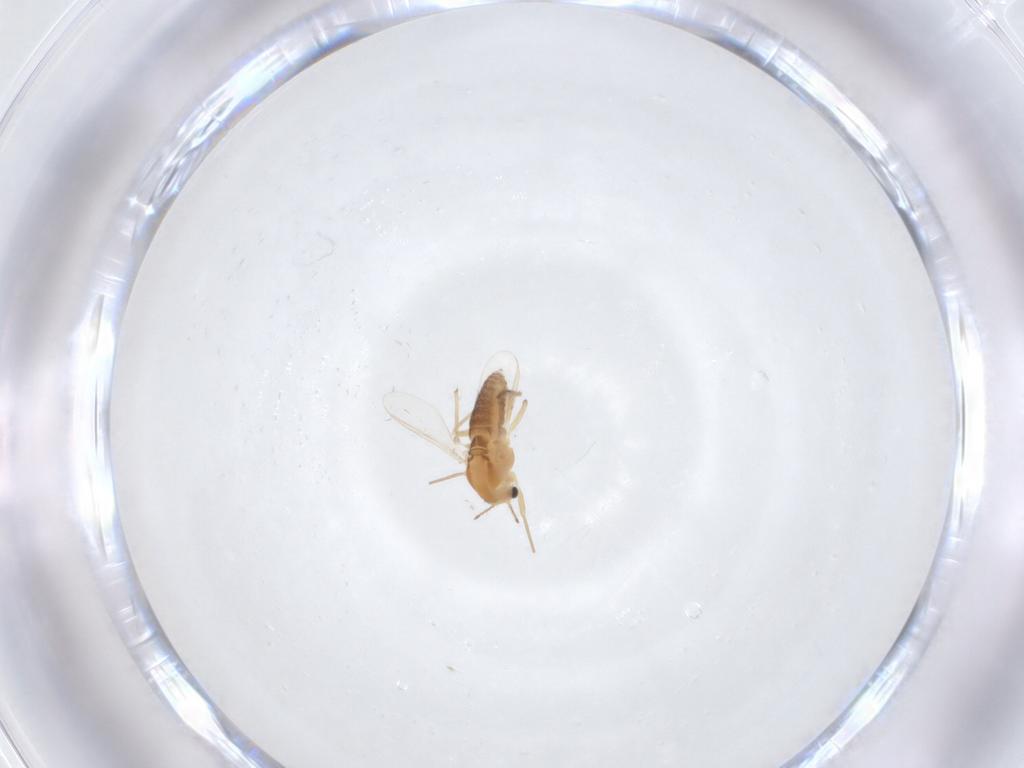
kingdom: Animalia
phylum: Arthropoda
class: Insecta
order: Diptera
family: Chironomidae
